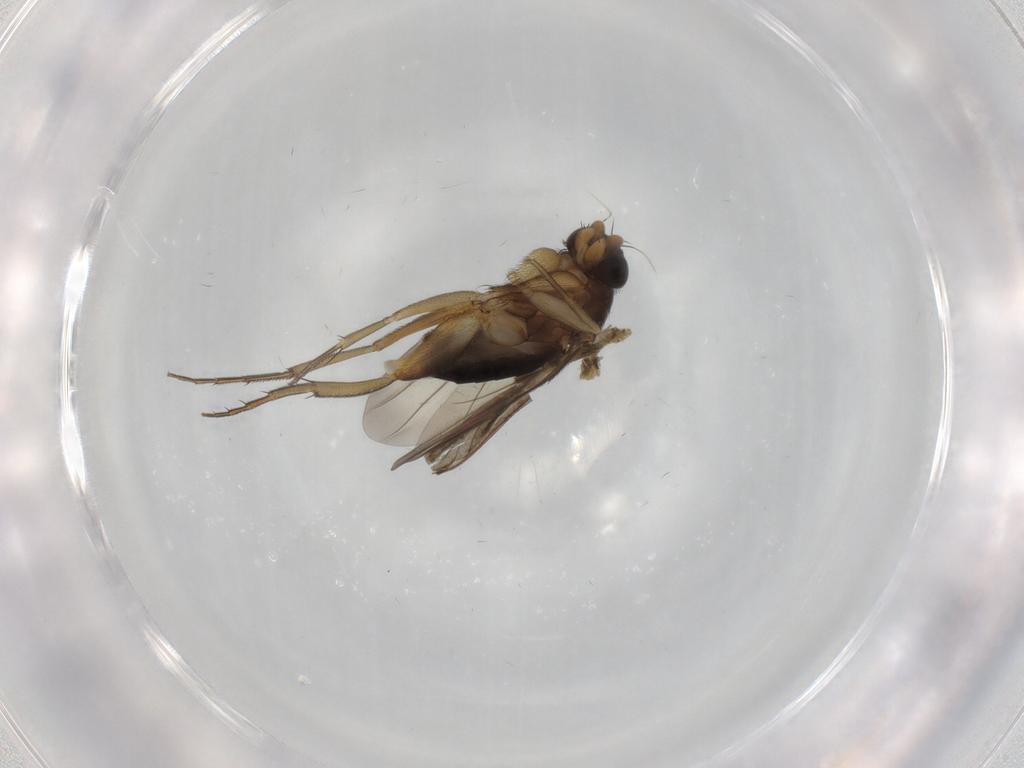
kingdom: Animalia
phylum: Arthropoda
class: Insecta
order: Diptera
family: Phoridae
